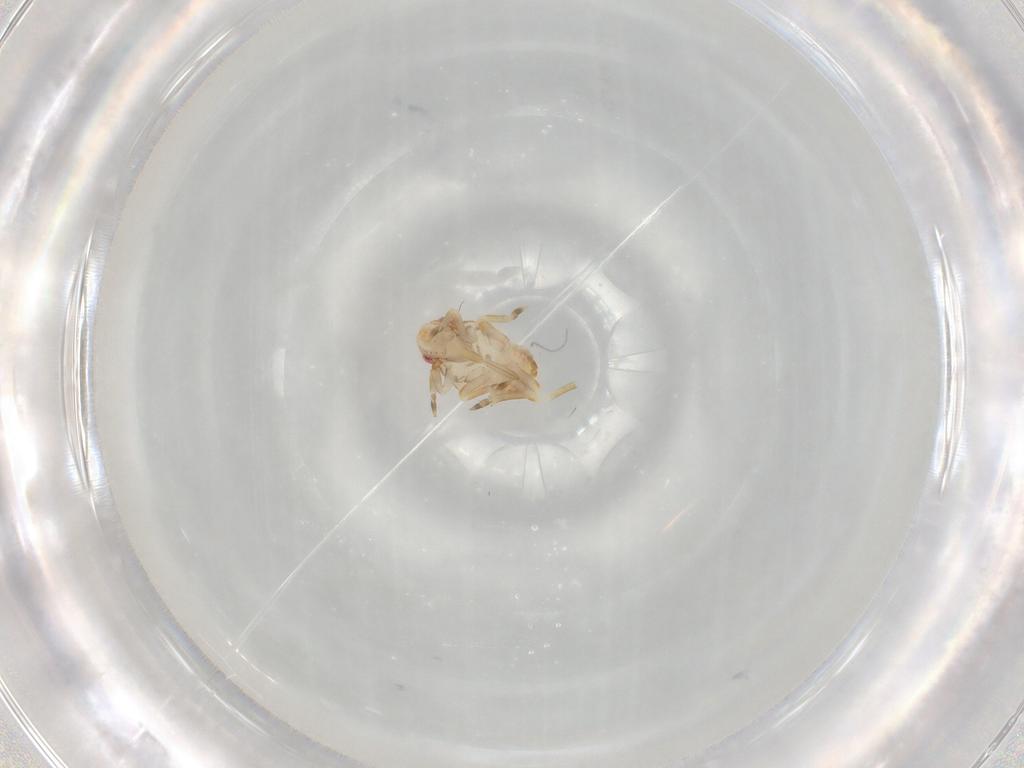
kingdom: Animalia
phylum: Arthropoda
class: Insecta
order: Hemiptera
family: Flatidae
